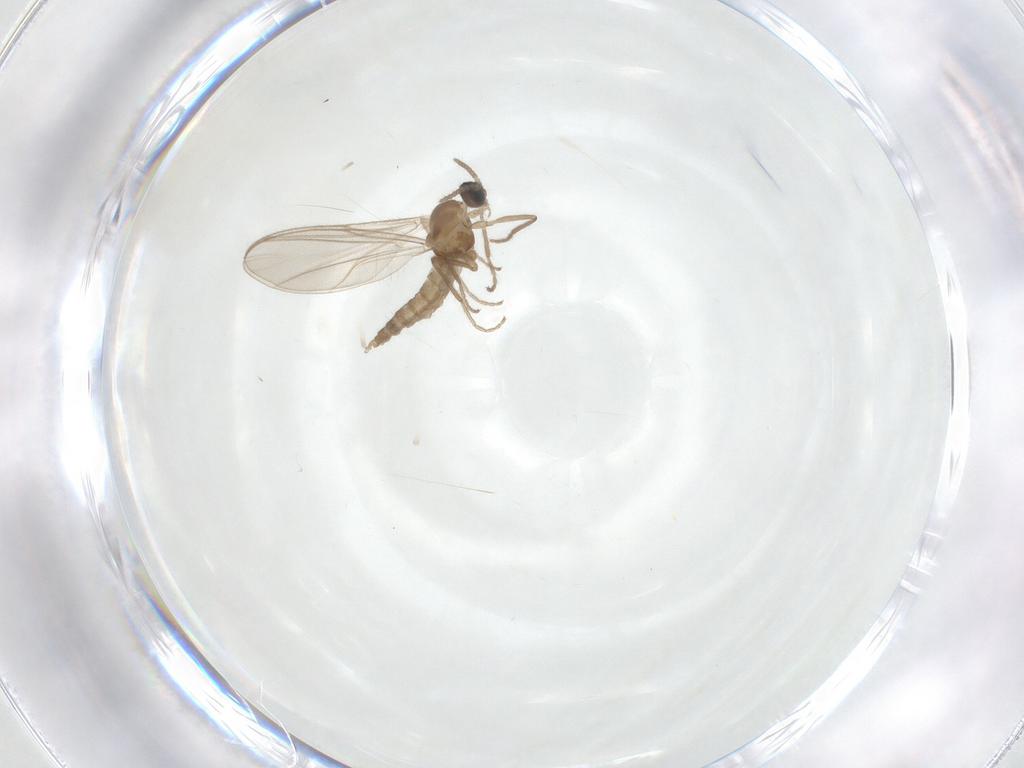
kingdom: Animalia
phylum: Arthropoda
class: Insecta
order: Diptera
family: Cecidomyiidae
